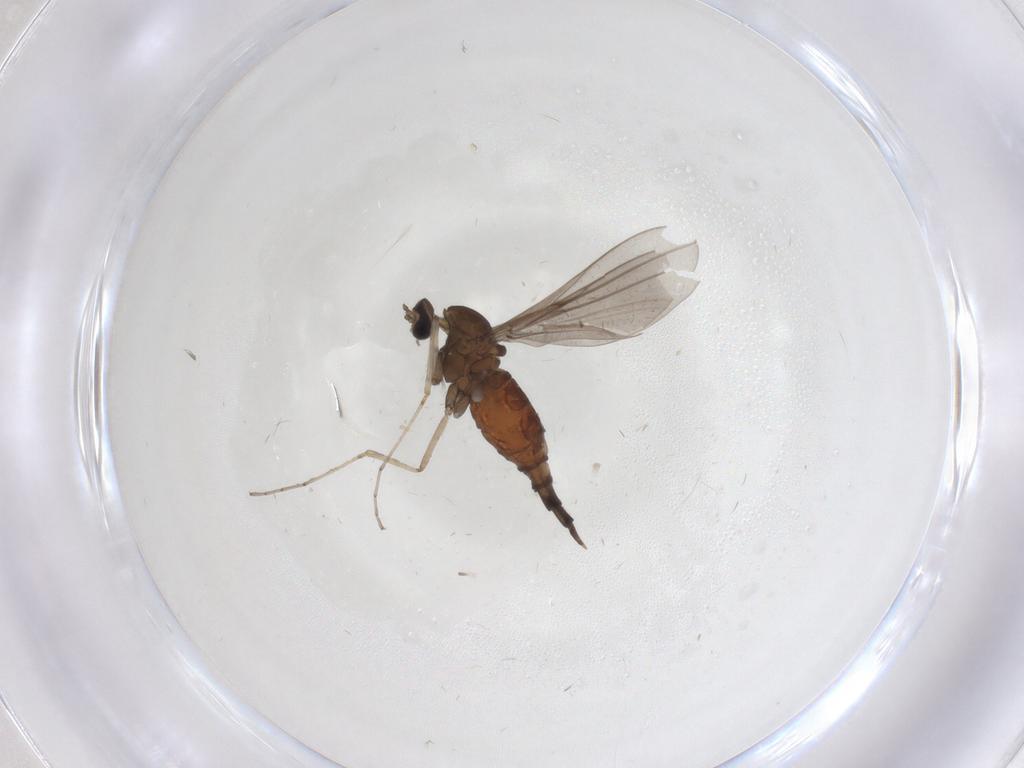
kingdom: Animalia
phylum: Arthropoda
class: Insecta
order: Diptera
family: Cecidomyiidae
